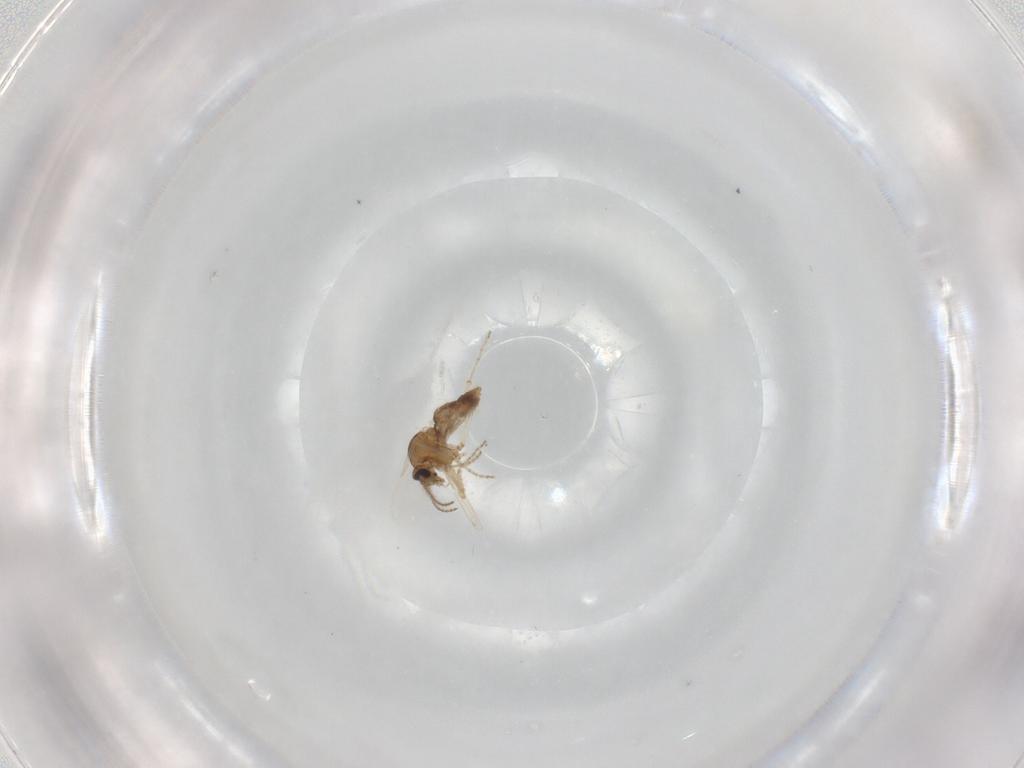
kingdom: Animalia
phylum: Arthropoda
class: Insecta
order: Diptera
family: Ceratopogonidae
